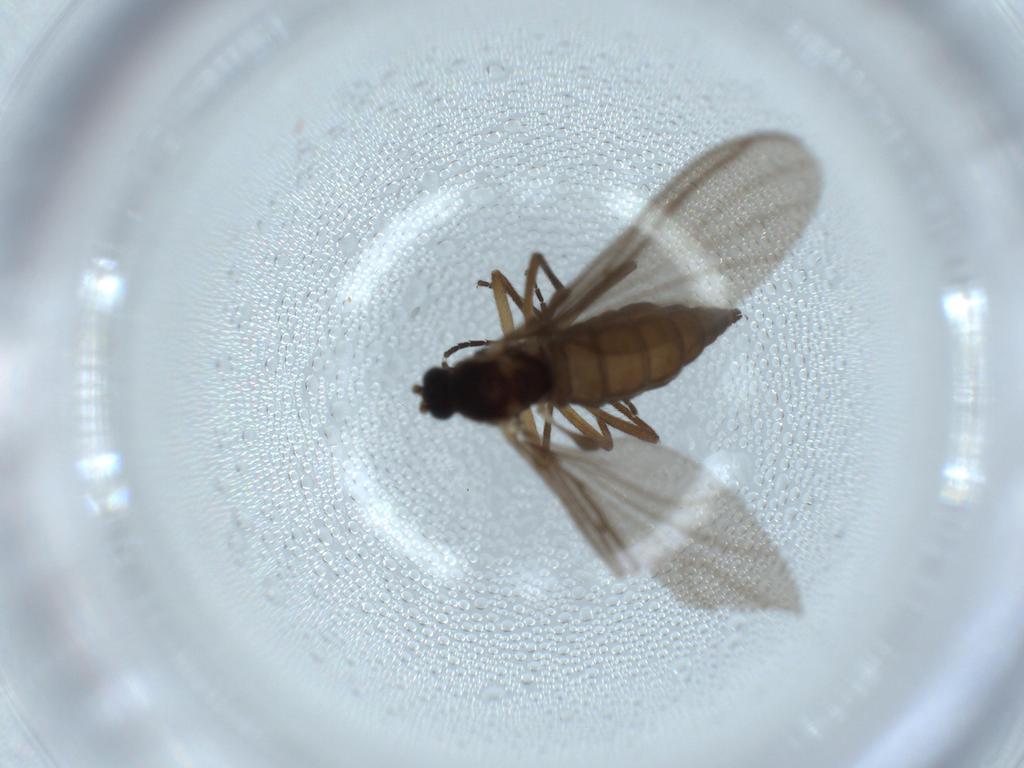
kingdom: Animalia
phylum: Arthropoda
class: Insecta
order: Diptera
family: Sciaridae
